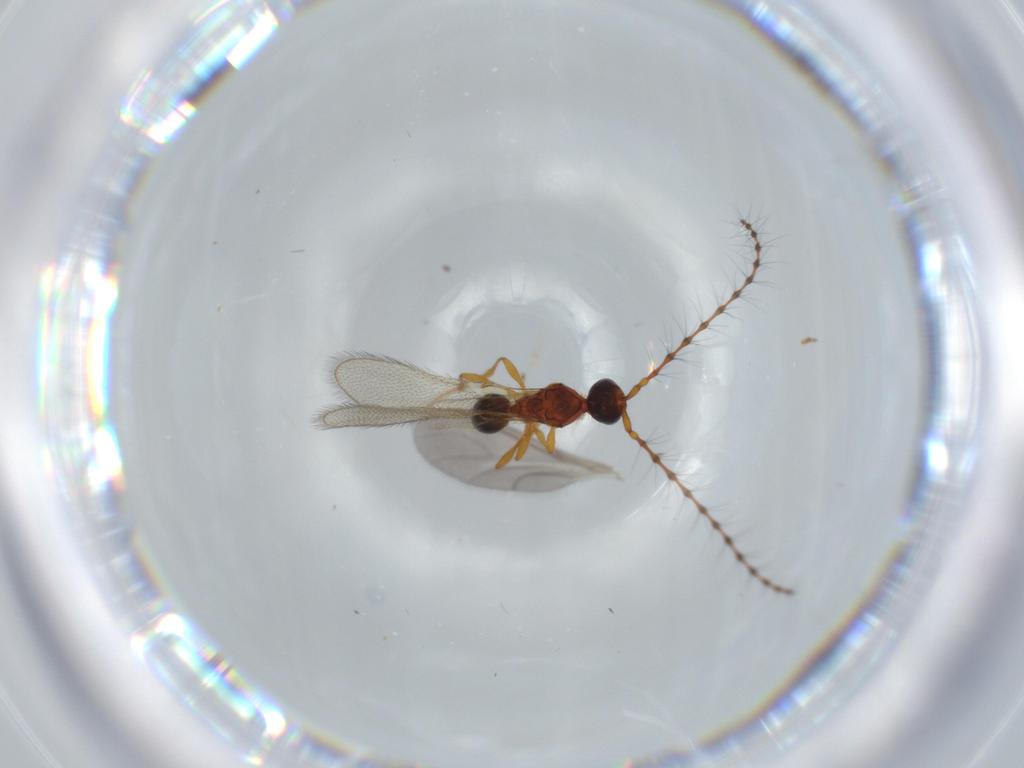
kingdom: Animalia
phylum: Arthropoda
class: Insecta
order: Hymenoptera
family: Diapriidae
